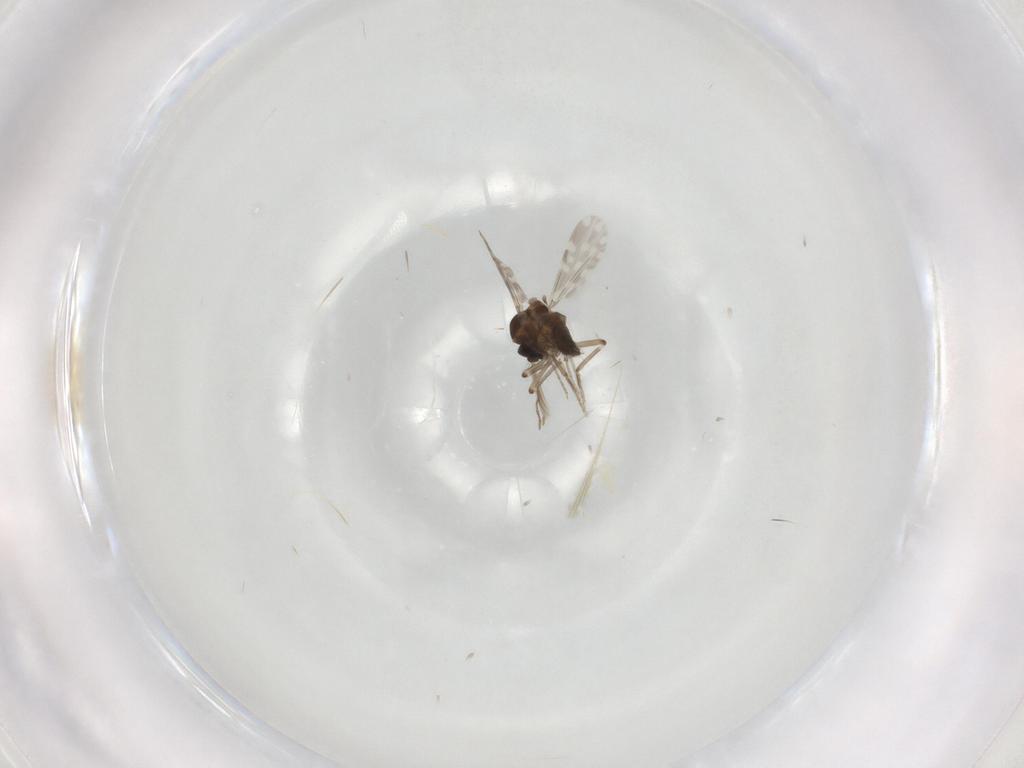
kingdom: Animalia
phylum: Arthropoda
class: Insecta
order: Diptera
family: Ceratopogonidae
